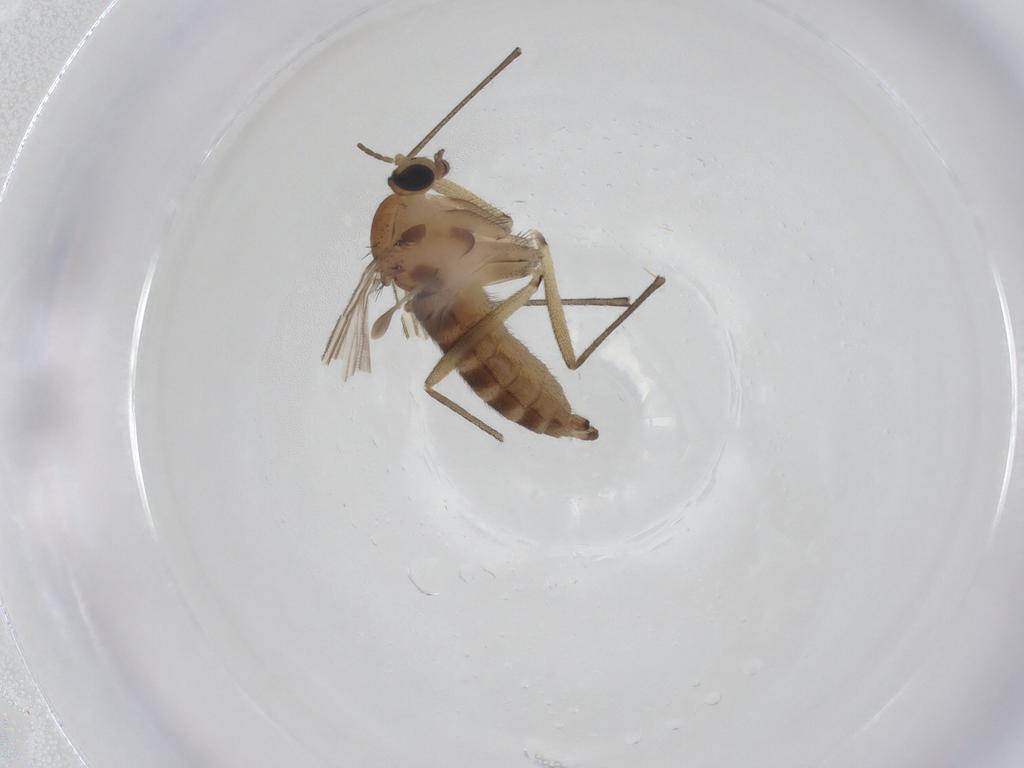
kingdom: Animalia
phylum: Arthropoda
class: Insecta
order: Diptera
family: Sciaridae
